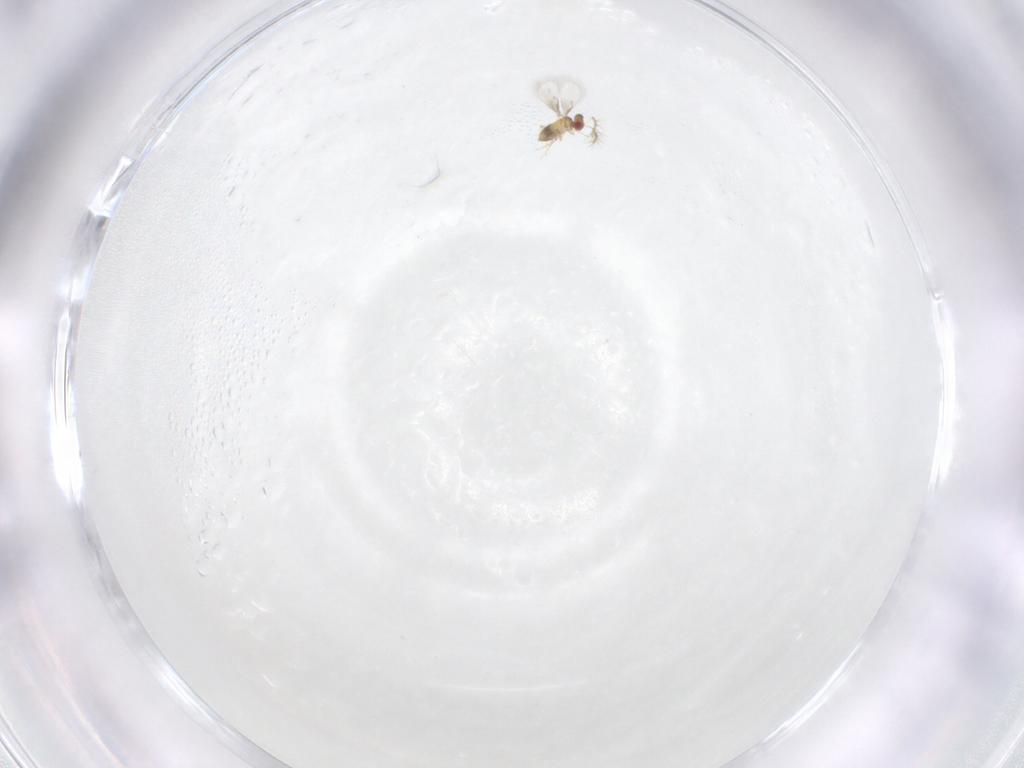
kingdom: Animalia
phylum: Arthropoda
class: Insecta
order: Hymenoptera
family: Trichogrammatidae
